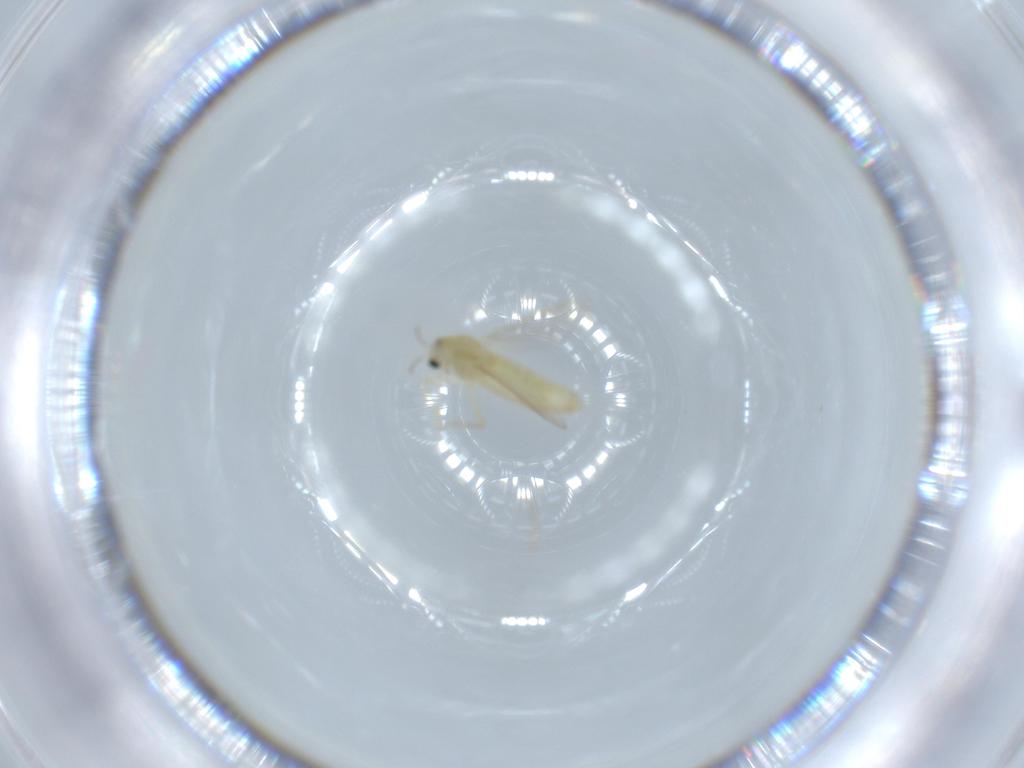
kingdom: Animalia
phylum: Arthropoda
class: Insecta
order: Diptera
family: Chironomidae
